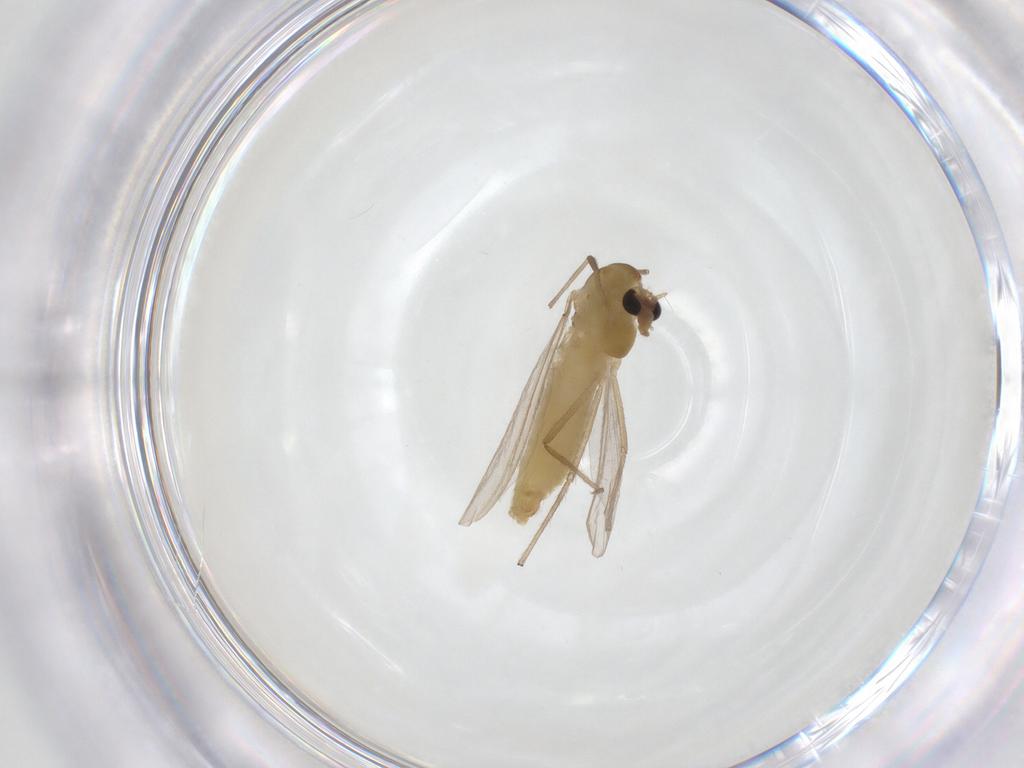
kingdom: Animalia
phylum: Arthropoda
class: Insecta
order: Diptera
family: Chironomidae
